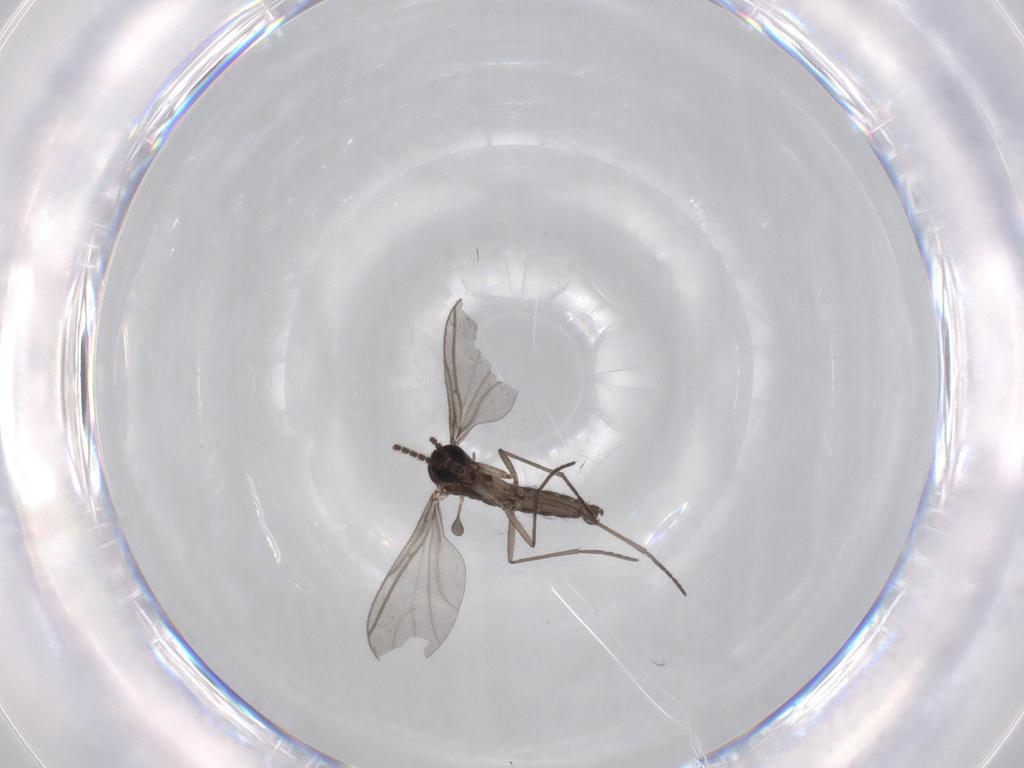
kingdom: Animalia
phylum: Arthropoda
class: Insecta
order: Diptera
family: Sciaridae
